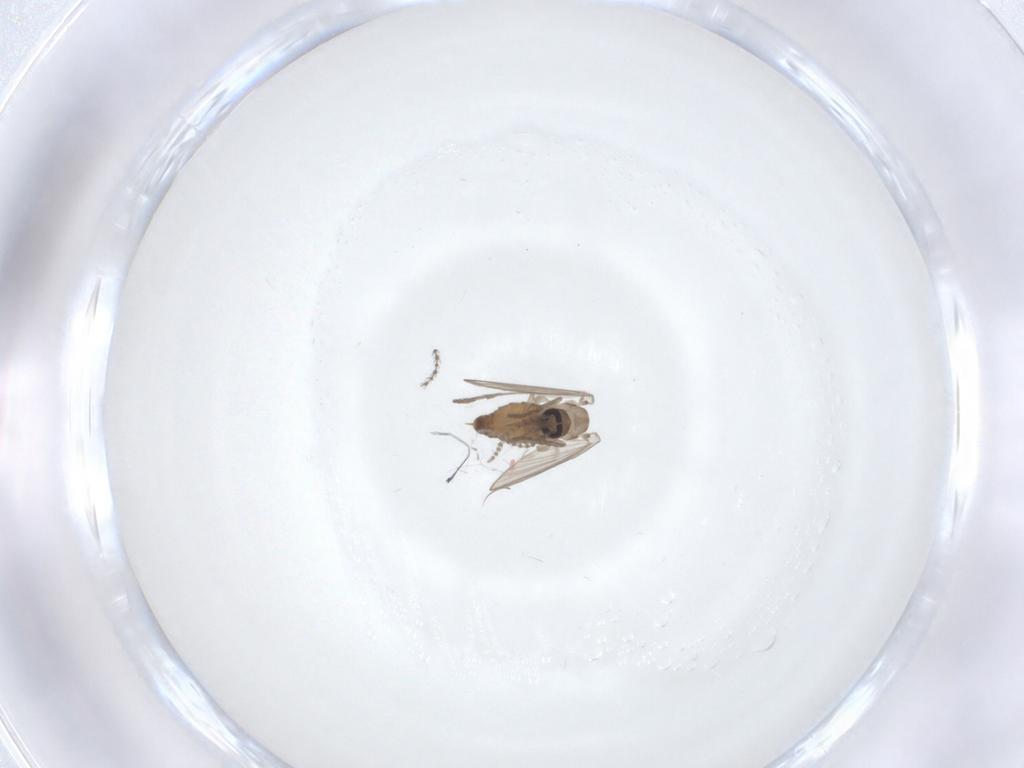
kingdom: Animalia
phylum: Arthropoda
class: Insecta
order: Diptera
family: Psychodidae
